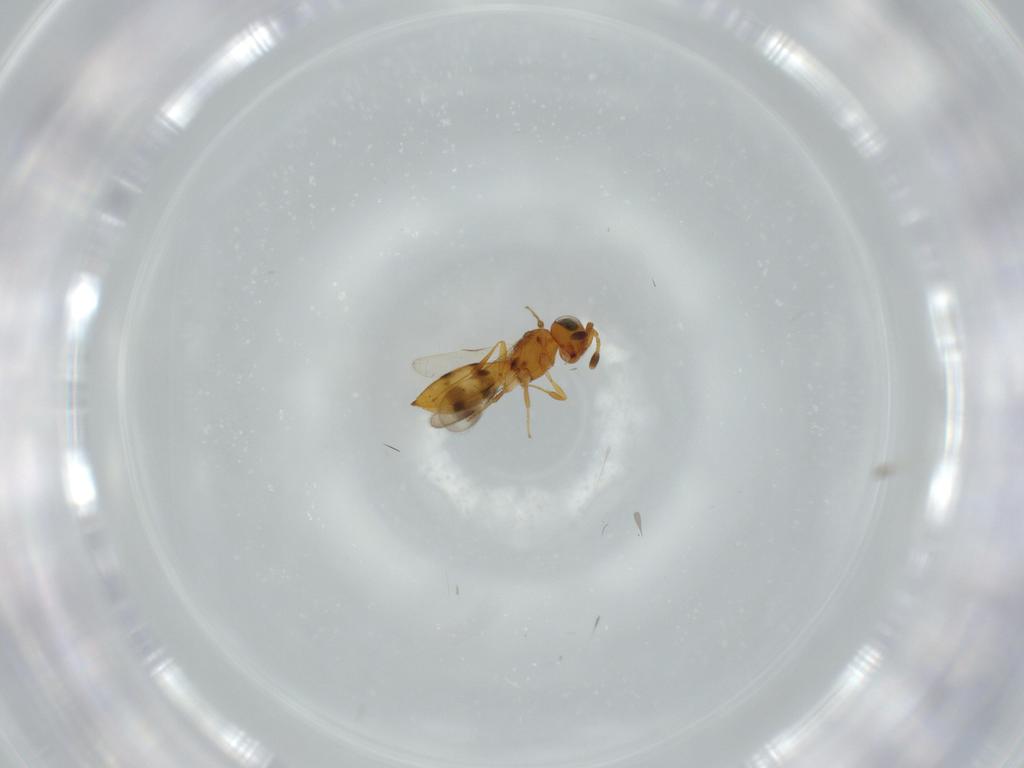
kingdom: Animalia
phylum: Arthropoda
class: Insecta
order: Hymenoptera
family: Scelionidae
